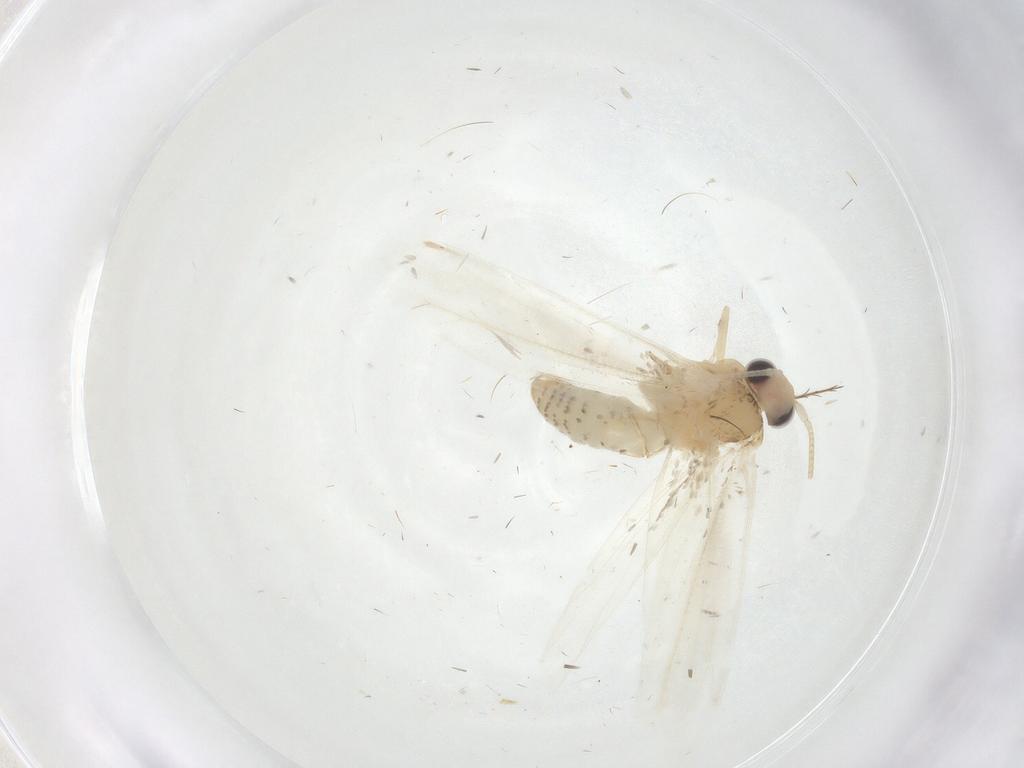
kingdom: Animalia
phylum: Arthropoda
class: Insecta
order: Lepidoptera
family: Tineidae
